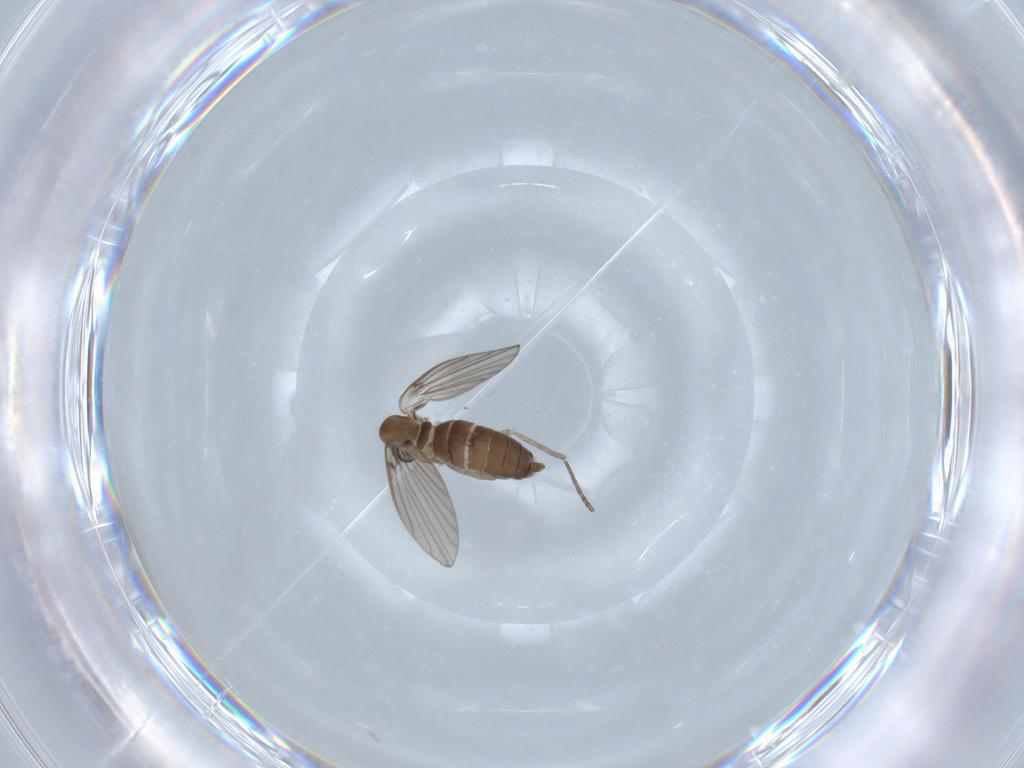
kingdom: Animalia
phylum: Arthropoda
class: Insecta
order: Diptera
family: Psychodidae
